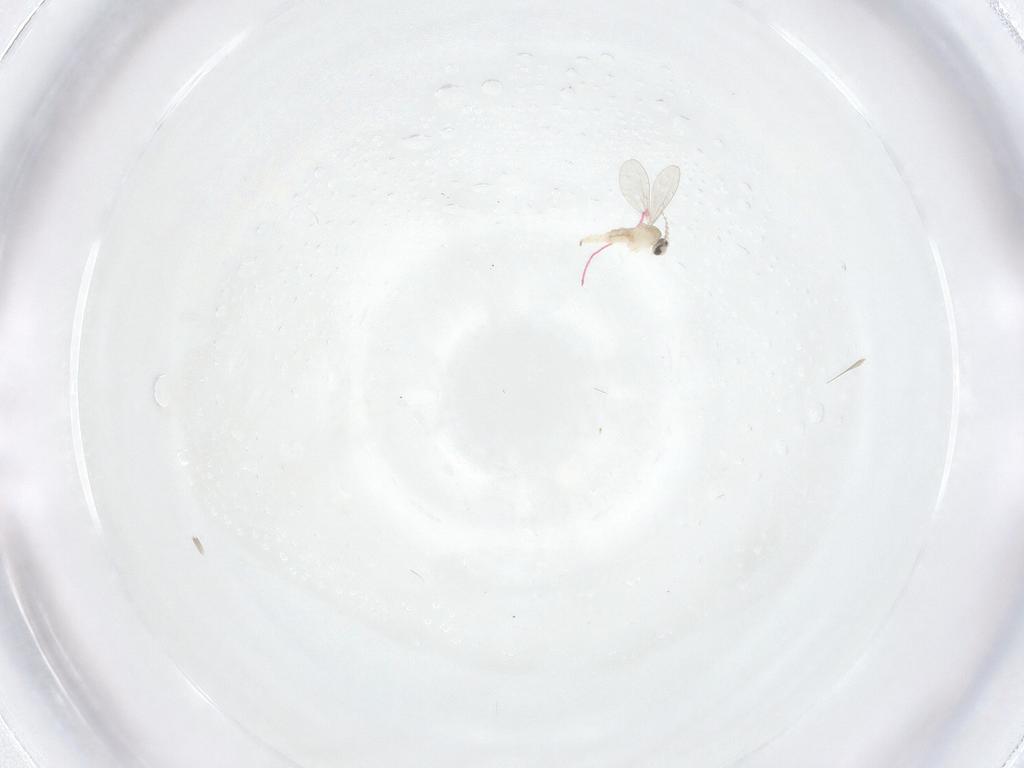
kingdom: Animalia
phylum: Arthropoda
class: Insecta
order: Diptera
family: Cecidomyiidae
